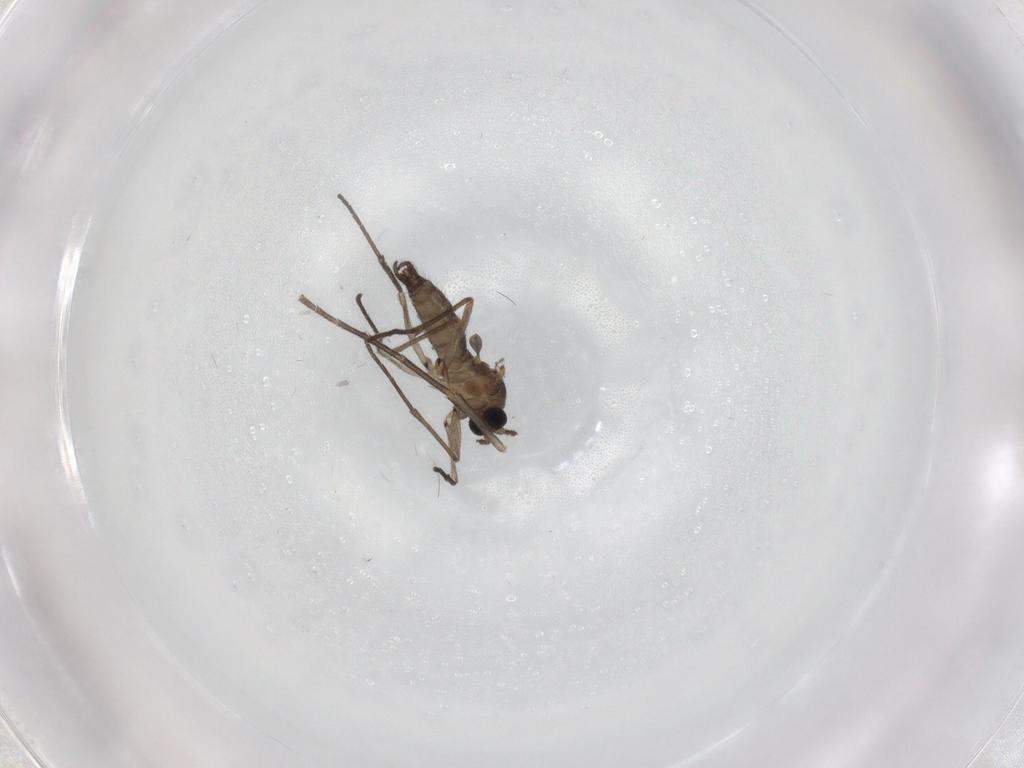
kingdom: Animalia
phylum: Arthropoda
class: Insecta
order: Diptera
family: Mycetophilidae
